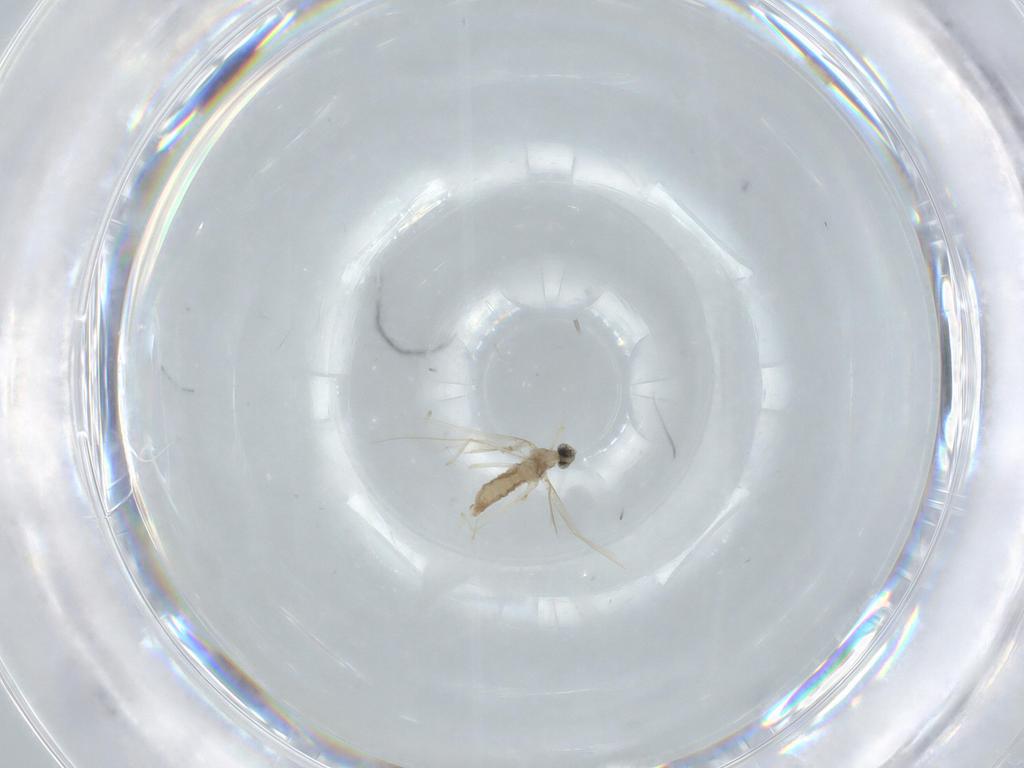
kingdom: Animalia
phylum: Arthropoda
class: Insecta
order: Diptera
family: Cecidomyiidae
